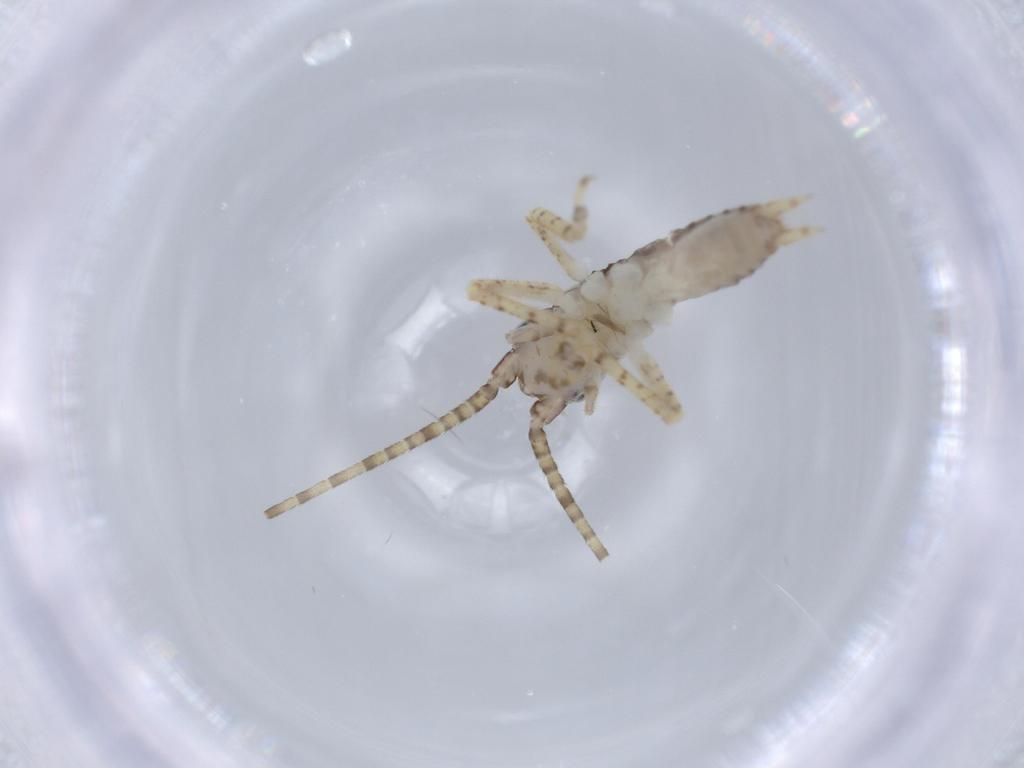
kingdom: Animalia
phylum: Arthropoda
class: Insecta
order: Orthoptera
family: Gryllidae
